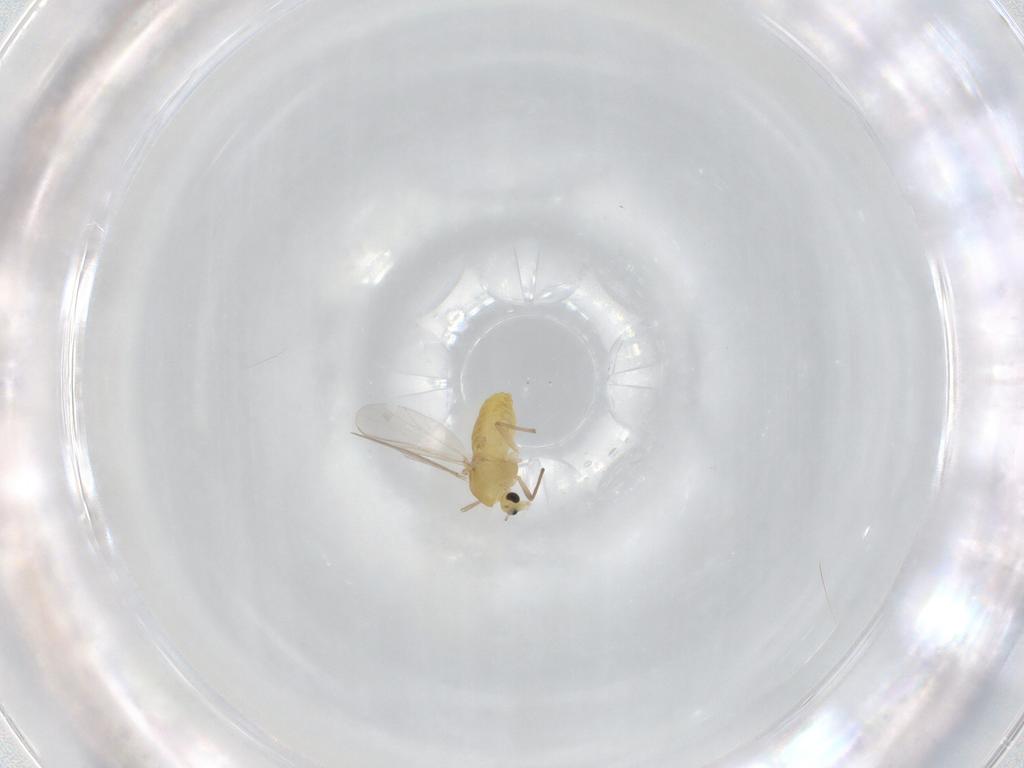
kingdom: Animalia
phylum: Arthropoda
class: Insecta
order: Diptera
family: Chironomidae
